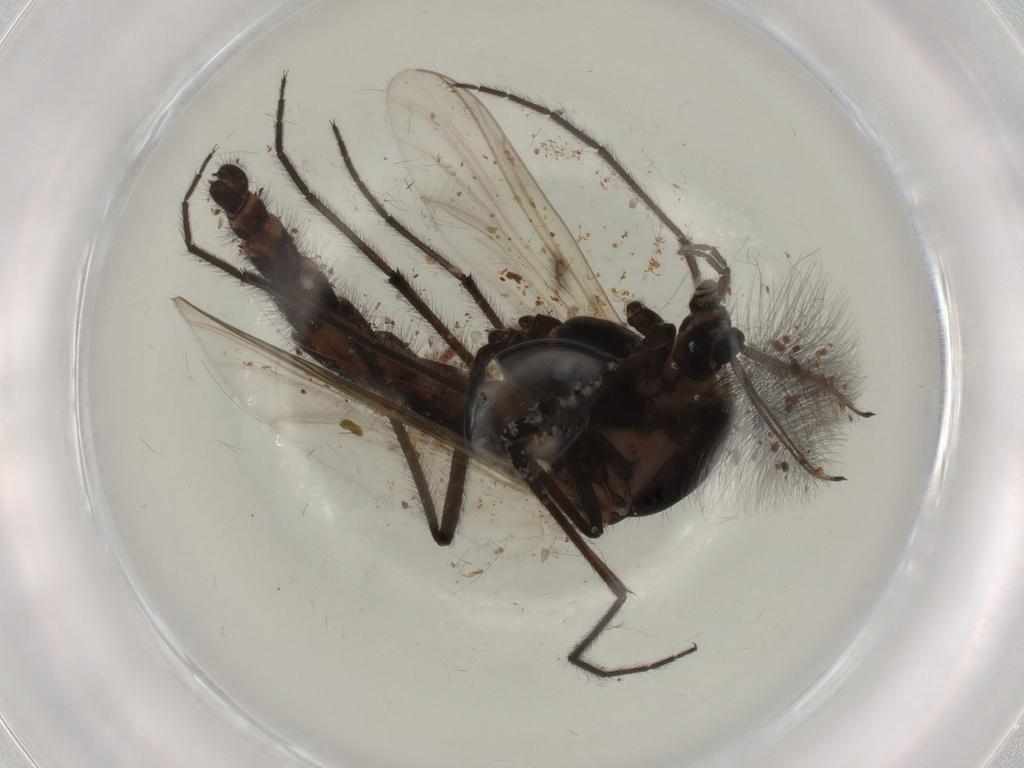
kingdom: Animalia
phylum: Arthropoda
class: Insecta
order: Diptera
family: Sciaridae
